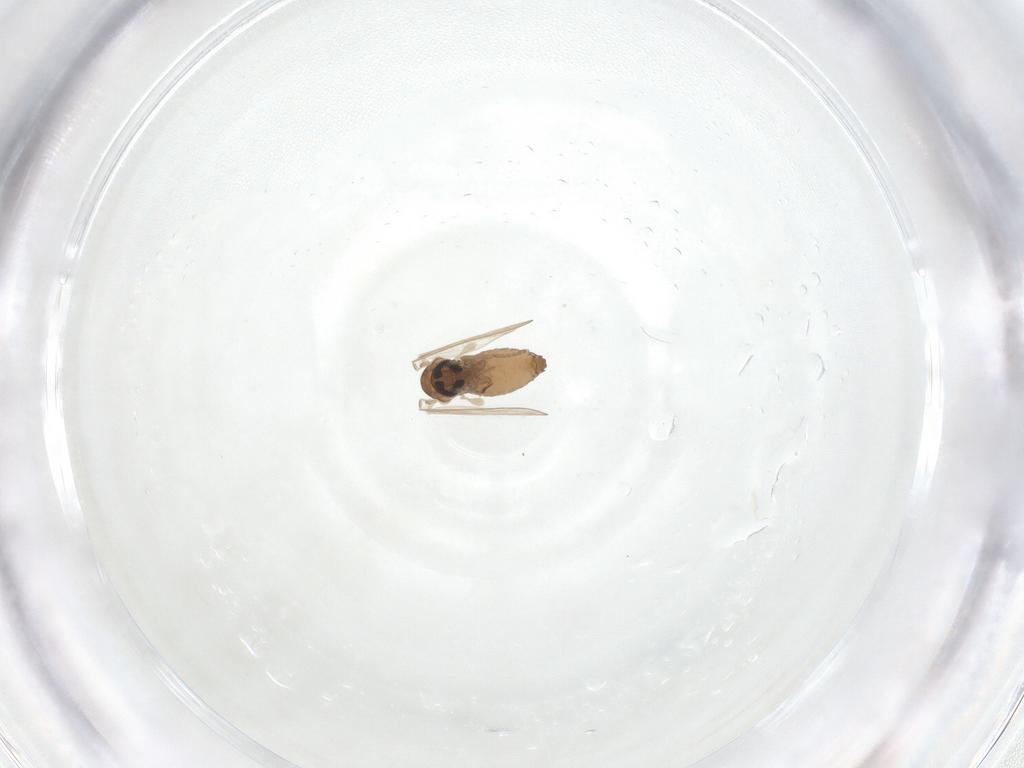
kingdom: Animalia
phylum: Arthropoda
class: Insecta
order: Diptera
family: Psychodidae
